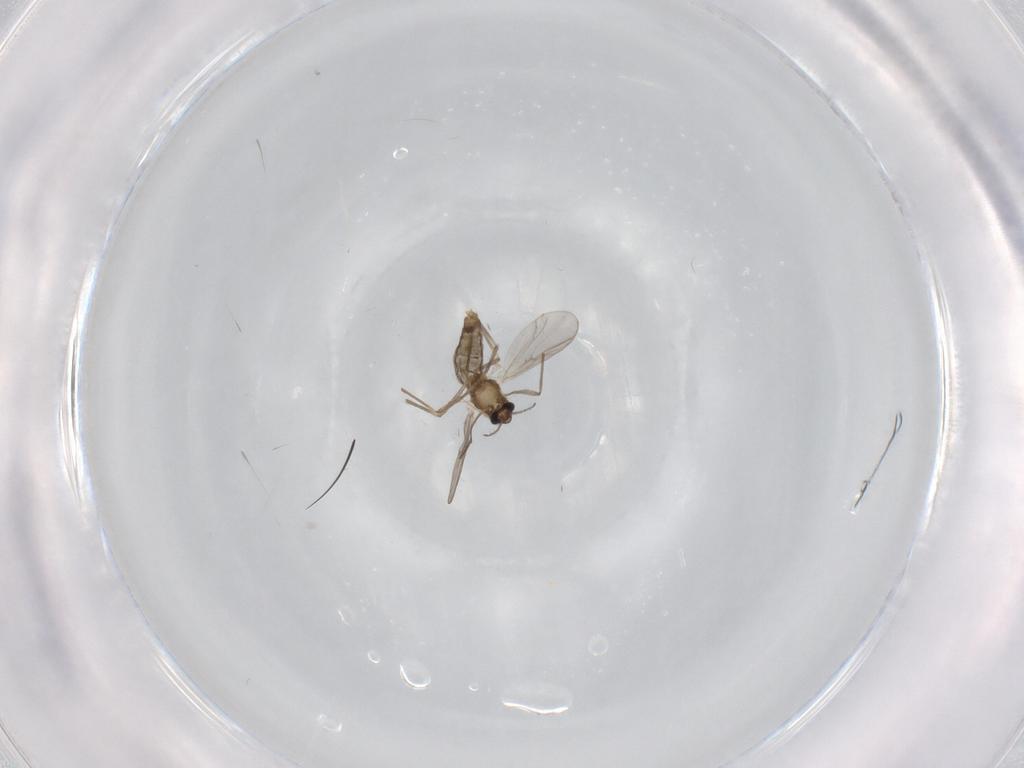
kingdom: Animalia
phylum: Arthropoda
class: Insecta
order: Diptera
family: Chironomidae
